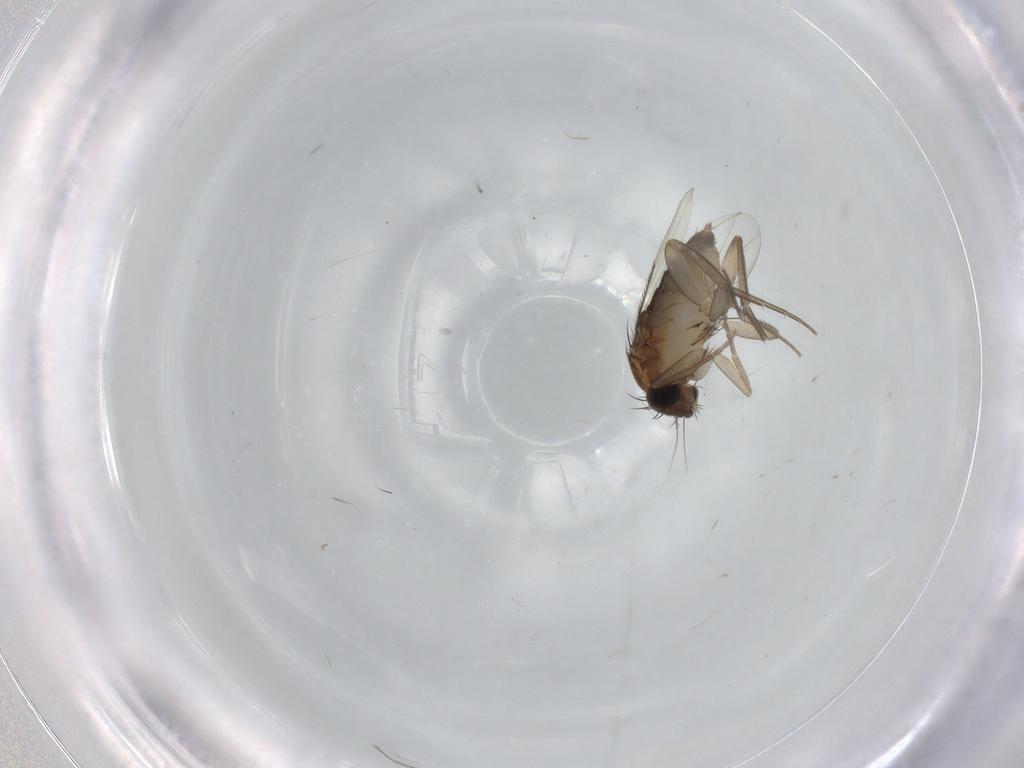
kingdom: Animalia
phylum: Arthropoda
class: Insecta
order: Diptera
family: Phoridae
